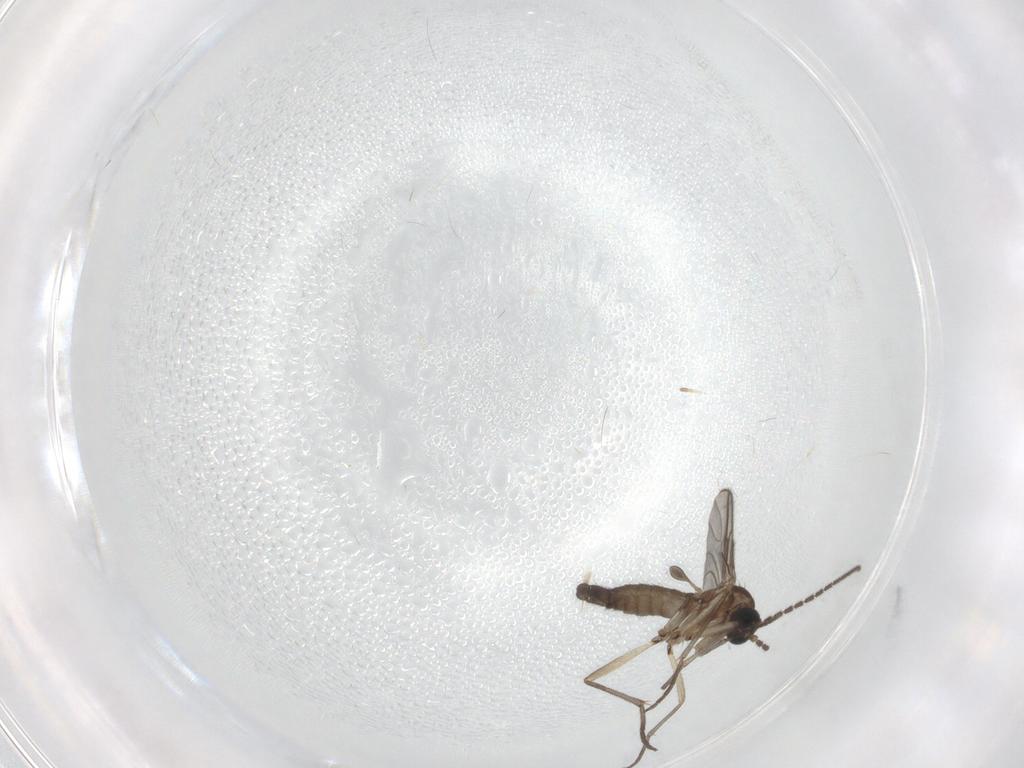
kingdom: Animalia
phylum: Arthropoda
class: Insecta
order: Diptera
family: Sciaridae
